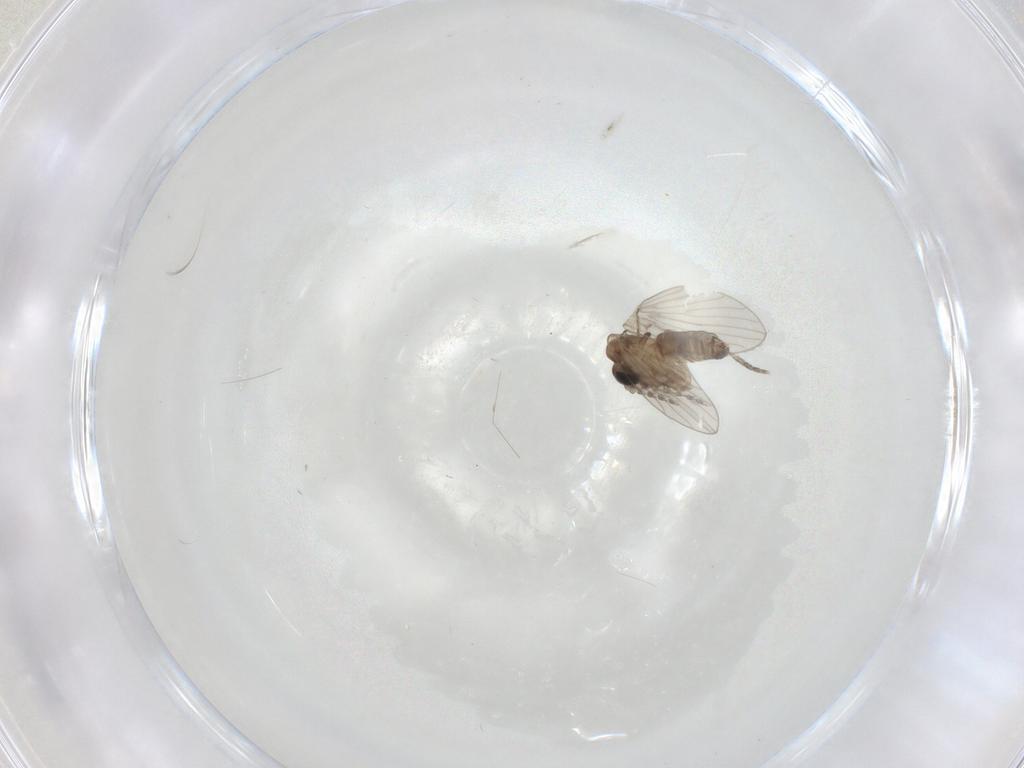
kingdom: Animalia
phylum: Arthropoda
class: Insecta
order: Diptera
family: Psychodidae
